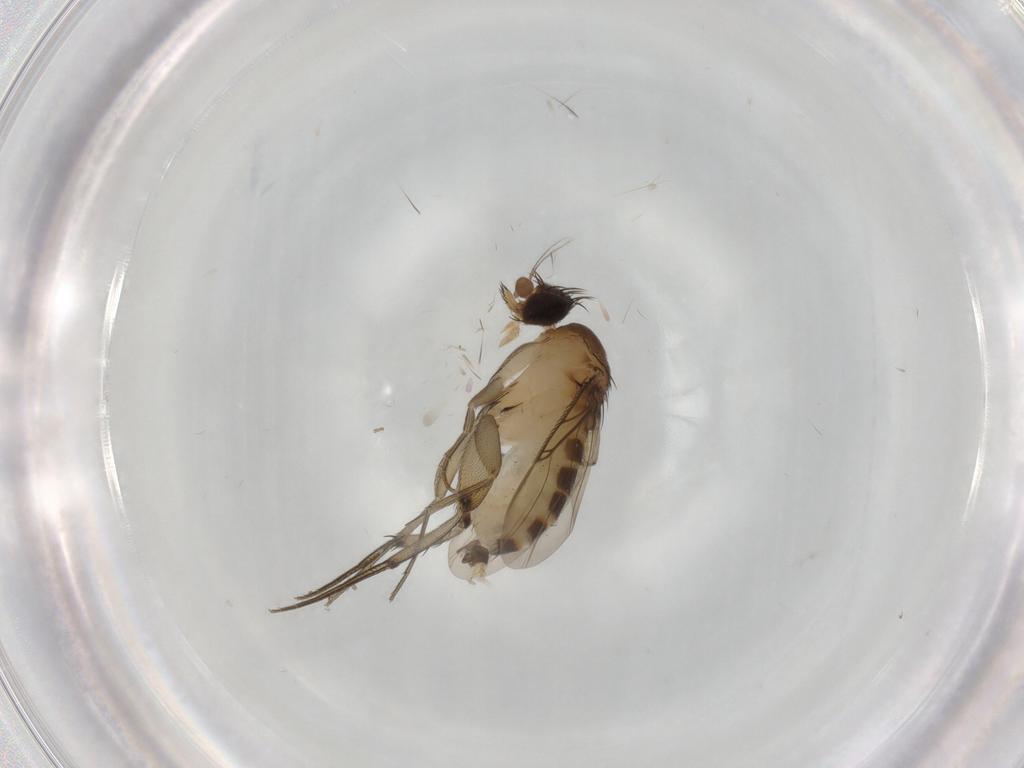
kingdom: Animalia
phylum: Arthropoda
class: Insecta
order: Diptera
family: Phoridae
